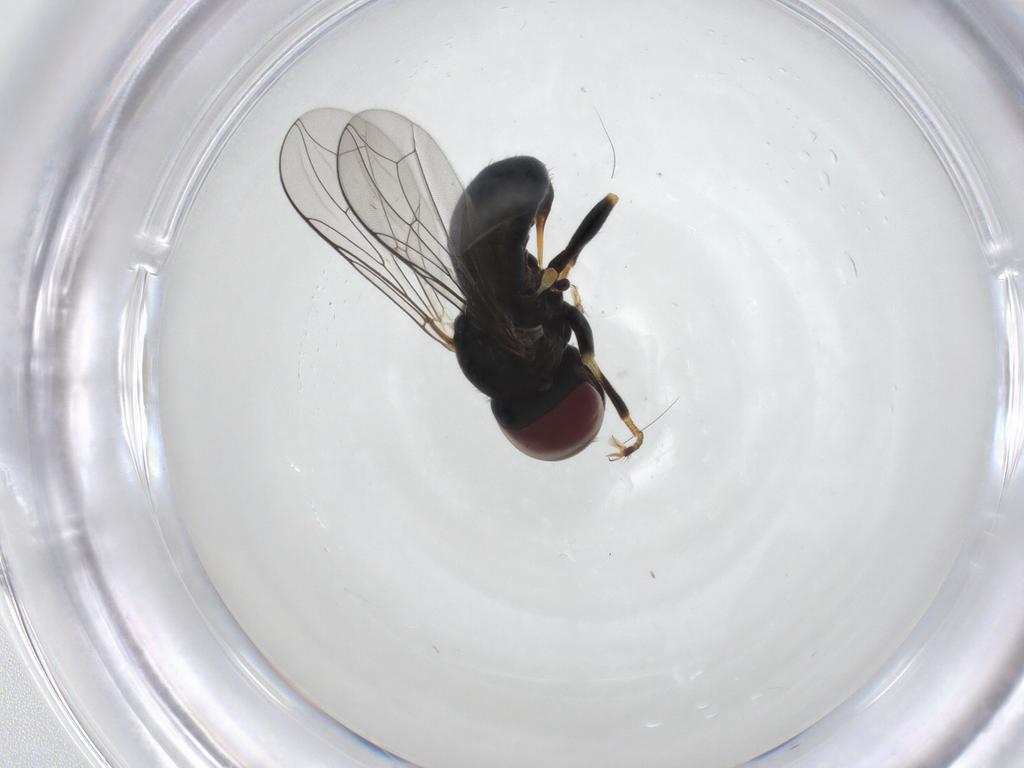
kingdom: Animalia
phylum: Arthropoda
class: Insecta
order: Diptera
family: Pipunculidae
